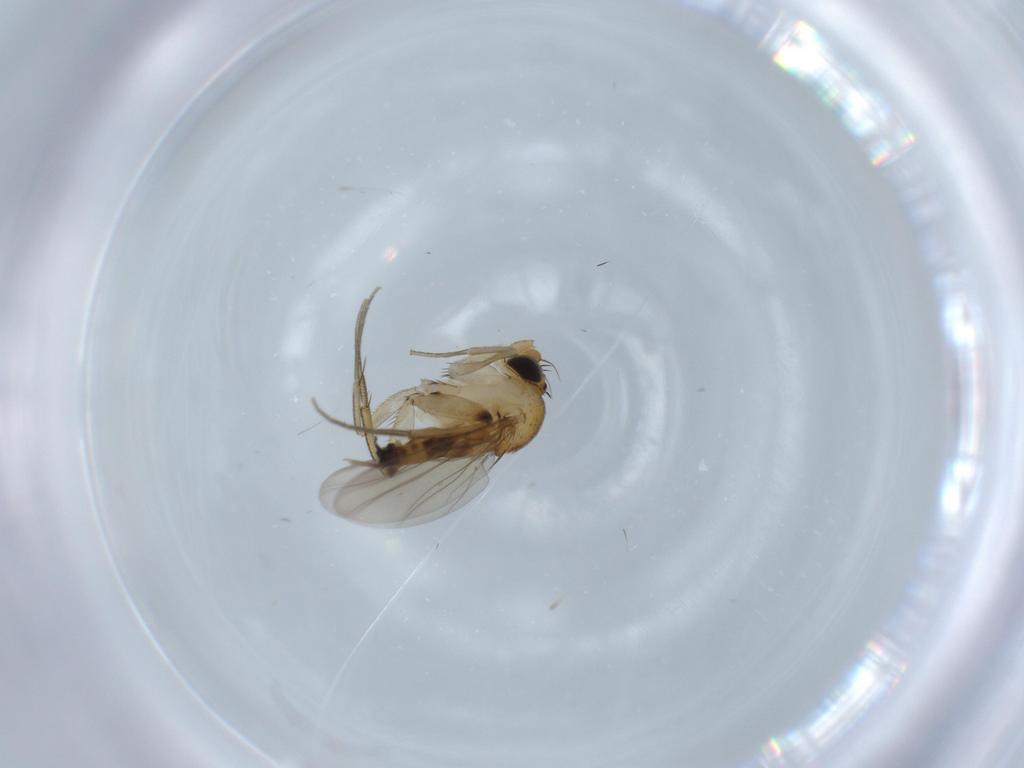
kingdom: Animalia
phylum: Arthropoda
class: Insecta
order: Diptera
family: Phoridae
